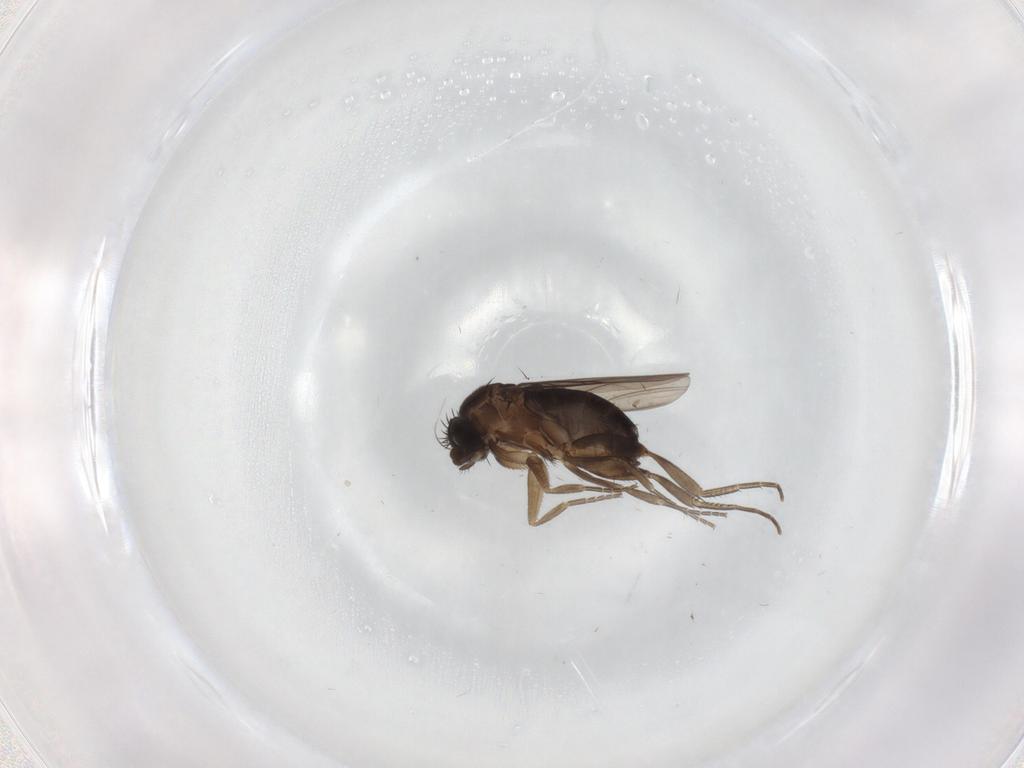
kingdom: Animalia
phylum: Arthropoda
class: Insecta
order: Diptera
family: Phoridae
